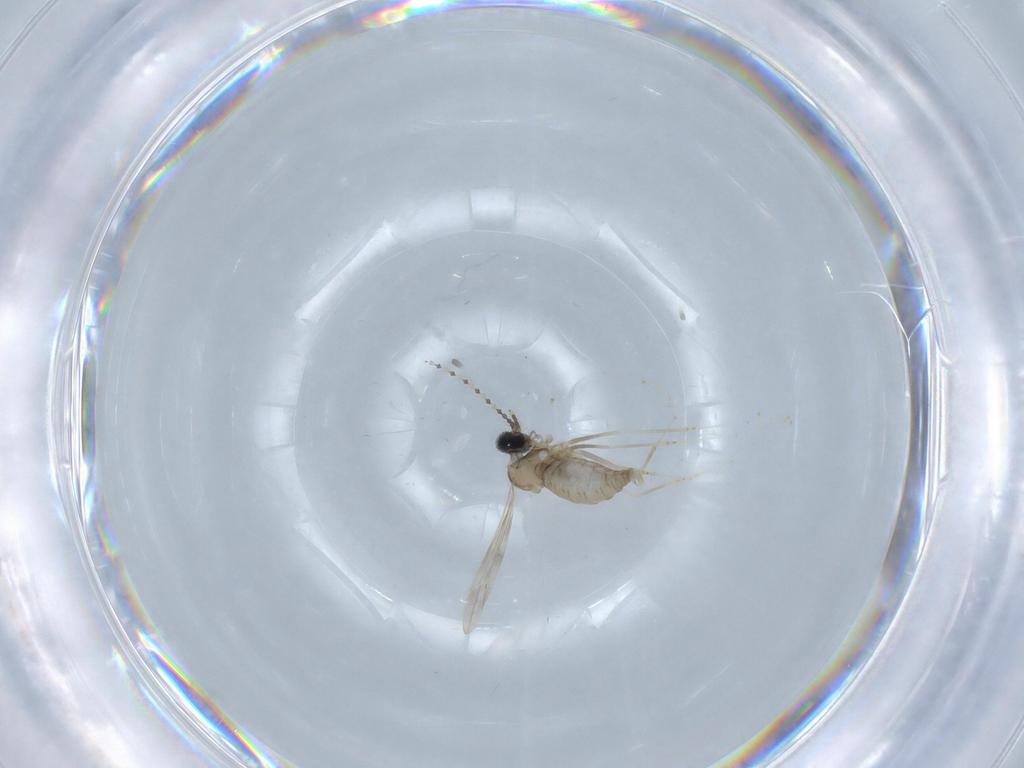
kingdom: Animalia
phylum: Arthropoda
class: Insecta
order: Diptera
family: Cecidomyiidae
